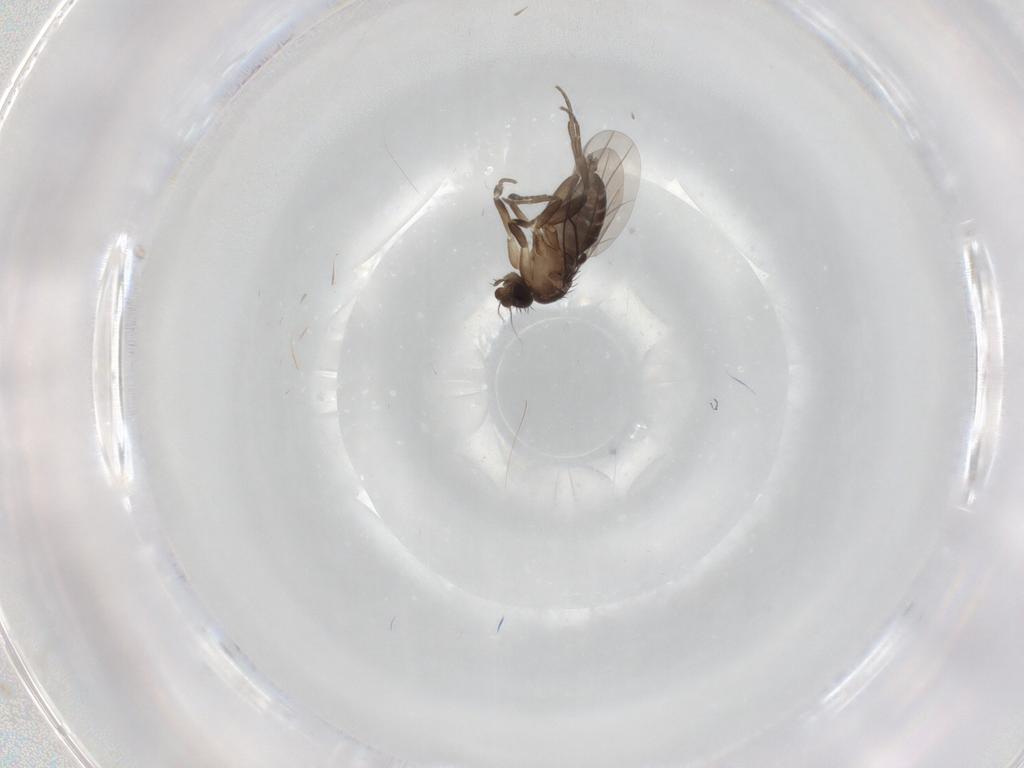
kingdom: Animalia
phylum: Arthropoda
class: Insecta
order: Diptera
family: Phoridae
